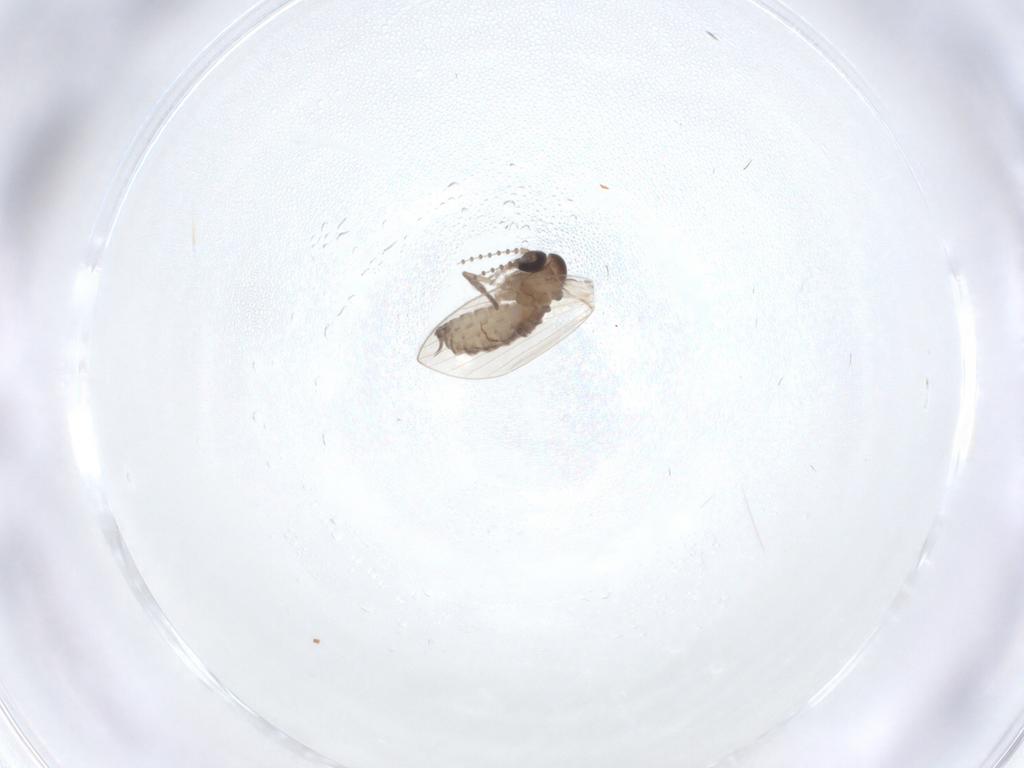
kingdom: Animalia
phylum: Arthropoda
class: Insecta
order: Diptera
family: Psychodidae
